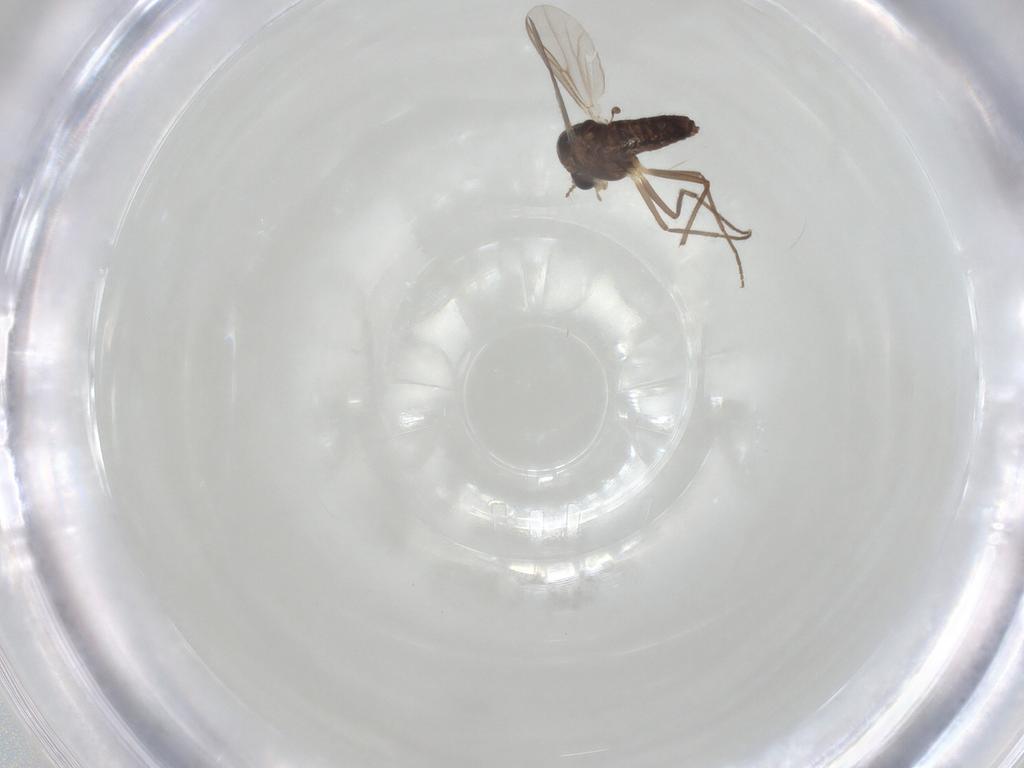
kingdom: Animalia
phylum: Arthropoda
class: Insecta
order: Diptera
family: Chironomidae
